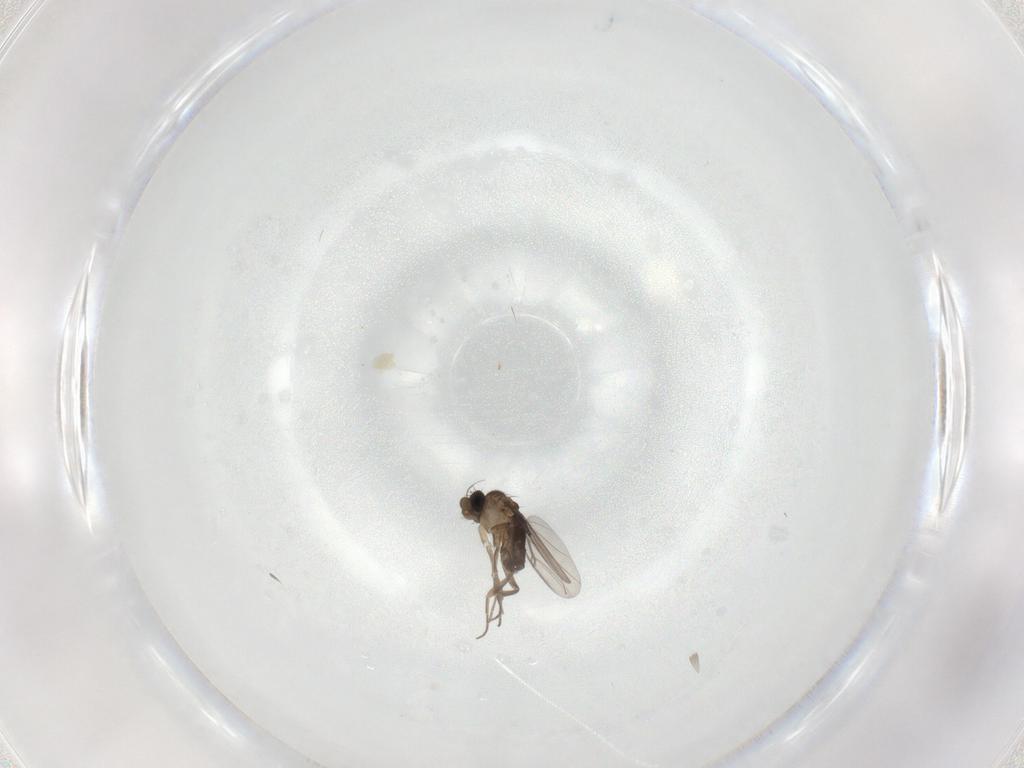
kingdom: Animalia
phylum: Arthropoda
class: Insecta
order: Diptera
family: Phoridae
